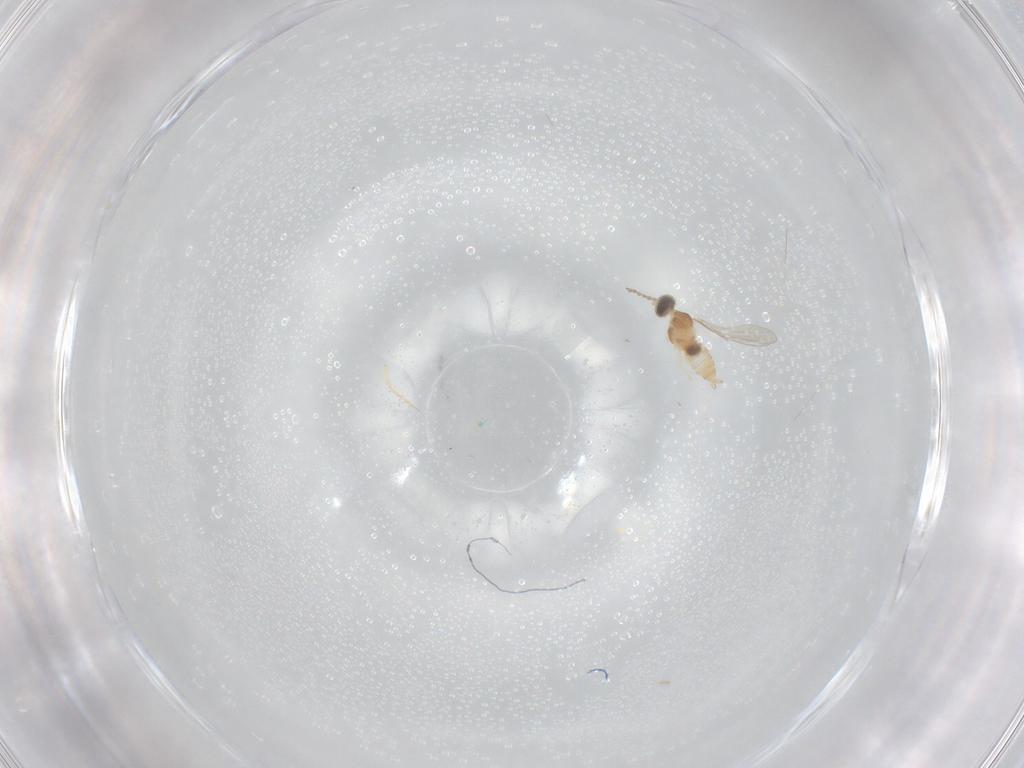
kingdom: Animalia
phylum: Arthropoda
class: Insecta
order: Diptera
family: Cecidomyiidae
